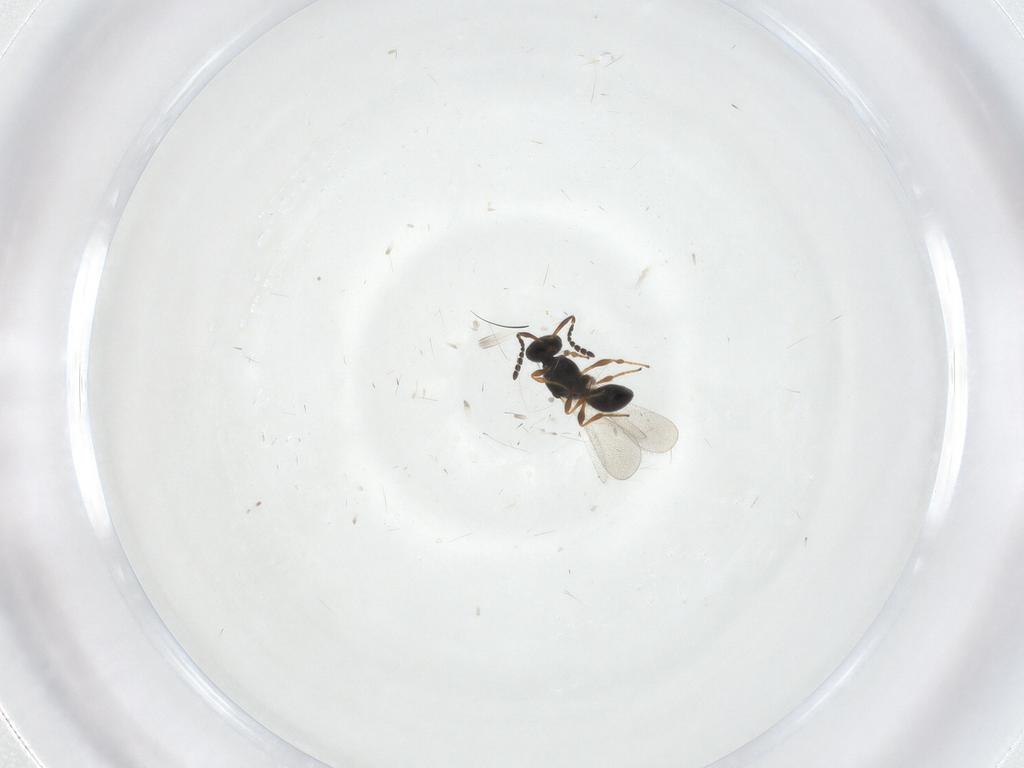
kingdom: Animalia
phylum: Arthropoda
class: Insecta
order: Hymenoptera
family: Platygastridae
